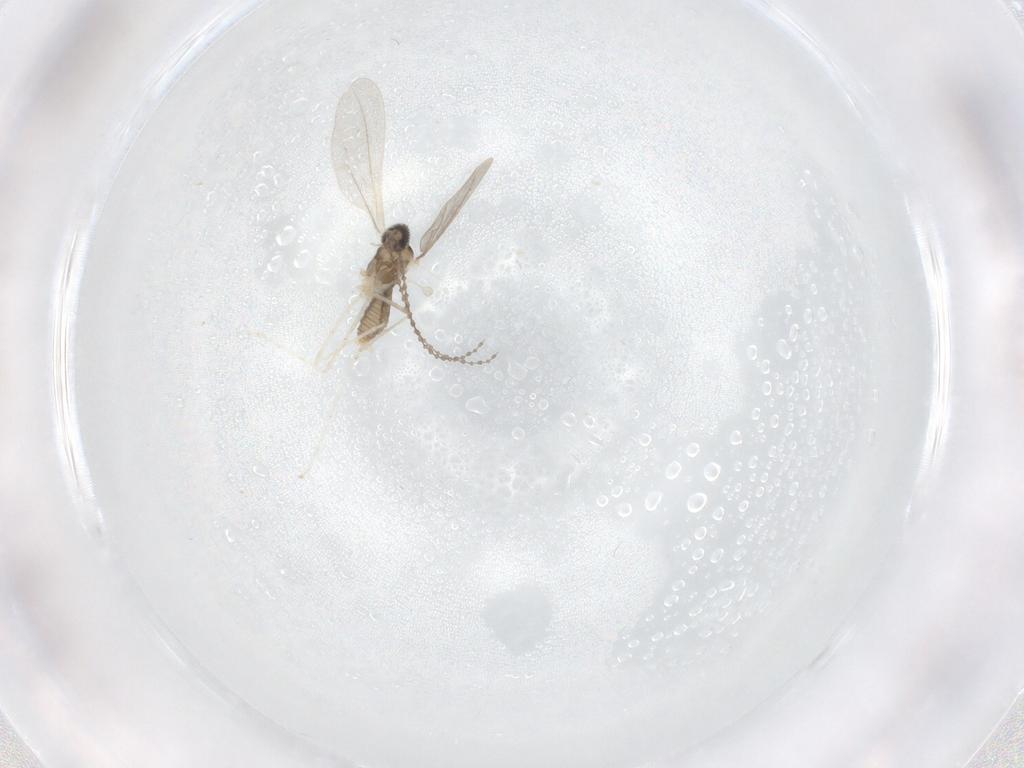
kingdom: Animalia
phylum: Arthropoda
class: Insecta
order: Diptera
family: Cecidomyiidae
